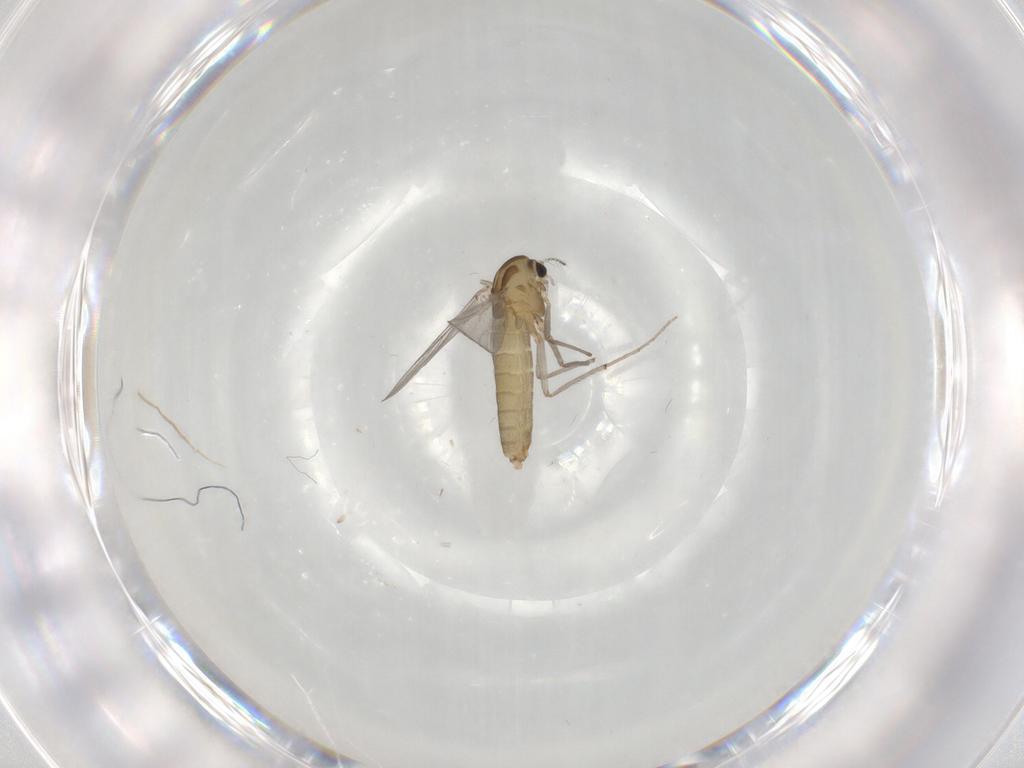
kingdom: Animalia
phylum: Arthropoda
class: Insecta
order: Diptera
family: Chironomidae
